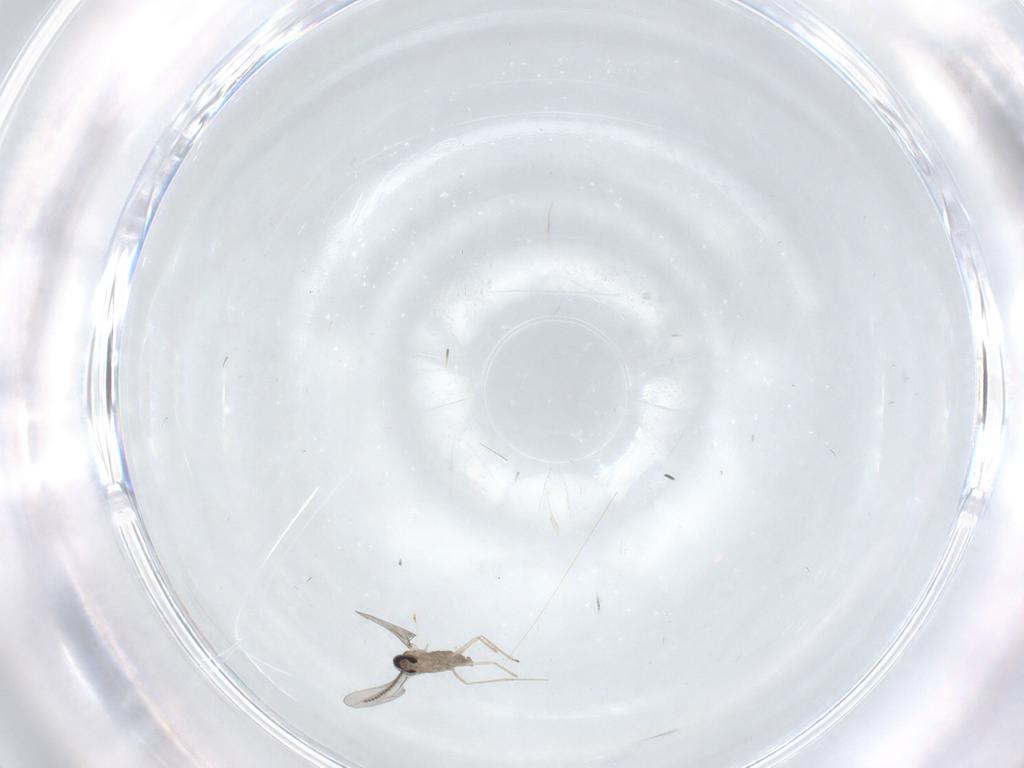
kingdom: Animalia
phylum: Arthropoda
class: Insecta
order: Diptera
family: Cecidomyiidae
